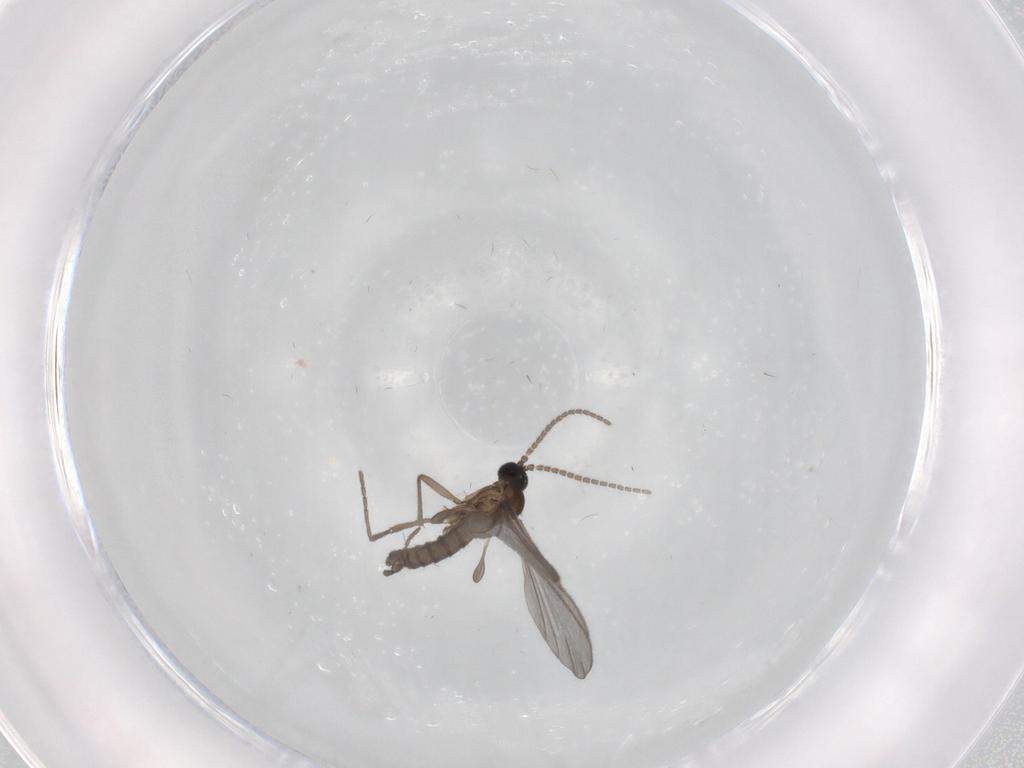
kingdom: Animalia
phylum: Arthropoda
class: Insecta
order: Diptera
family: Sciaridae
